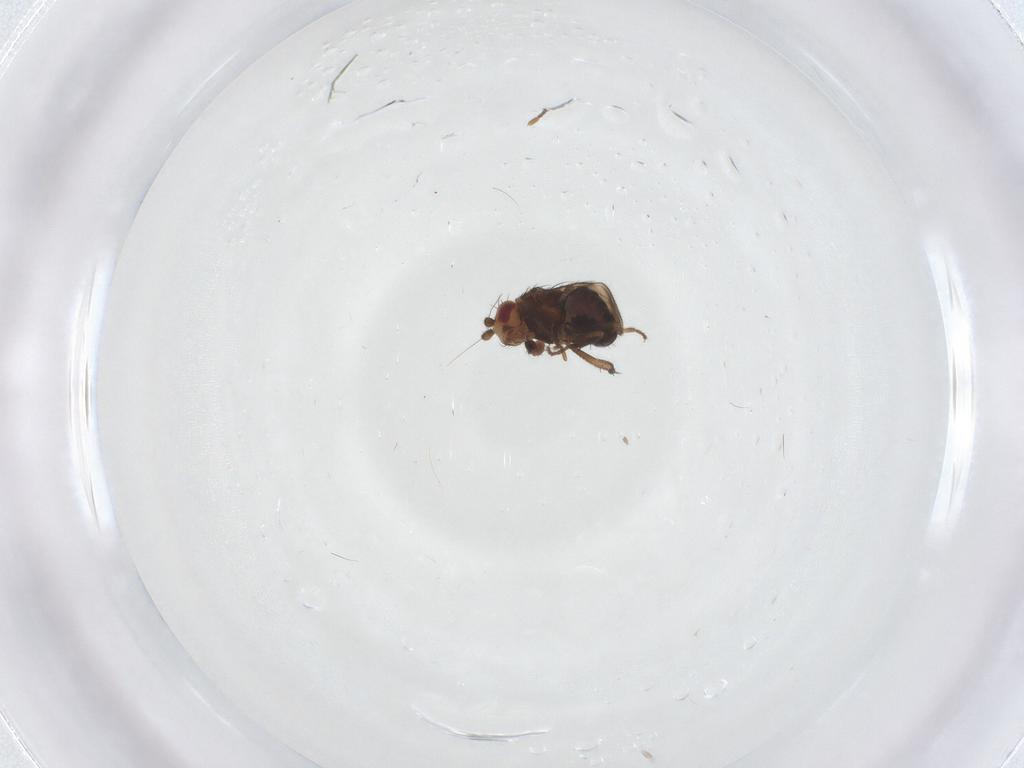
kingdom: Animalia
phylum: Arthropoda
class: Insecta
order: Diptera
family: Sphaeroceridae
